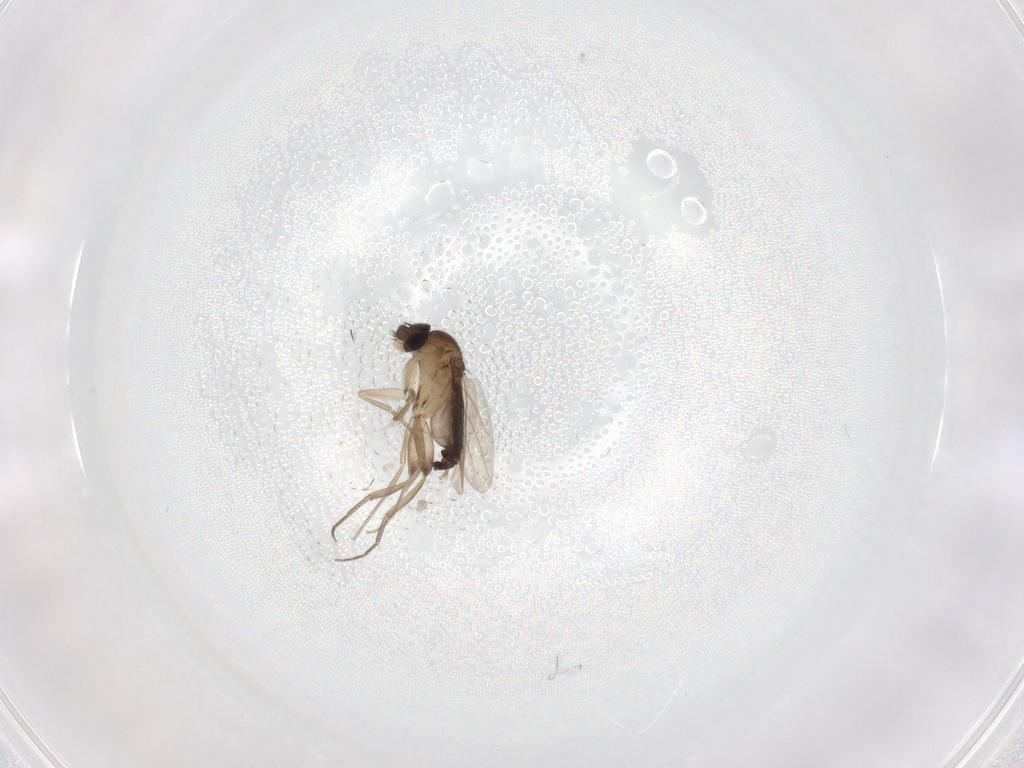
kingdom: Animalia
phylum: Arthropoda
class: Insecta
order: Diptera
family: Phoridae
